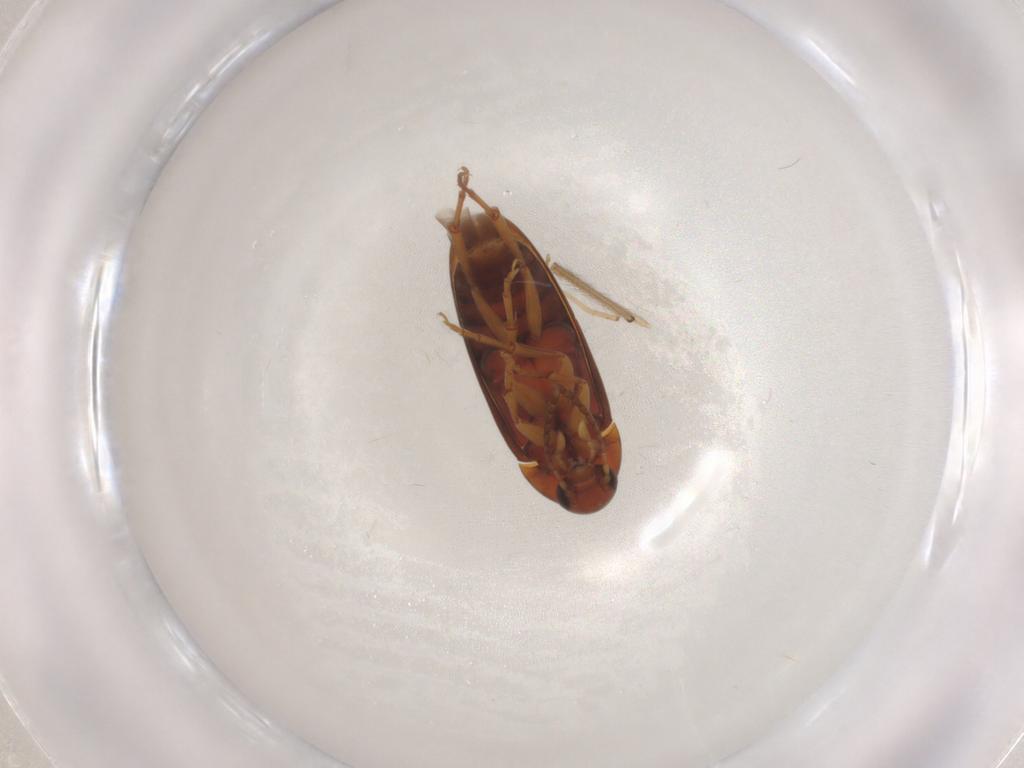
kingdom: Animalia
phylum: Arthropoda
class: Insecta
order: Coleoptera
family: Scraptiidae
